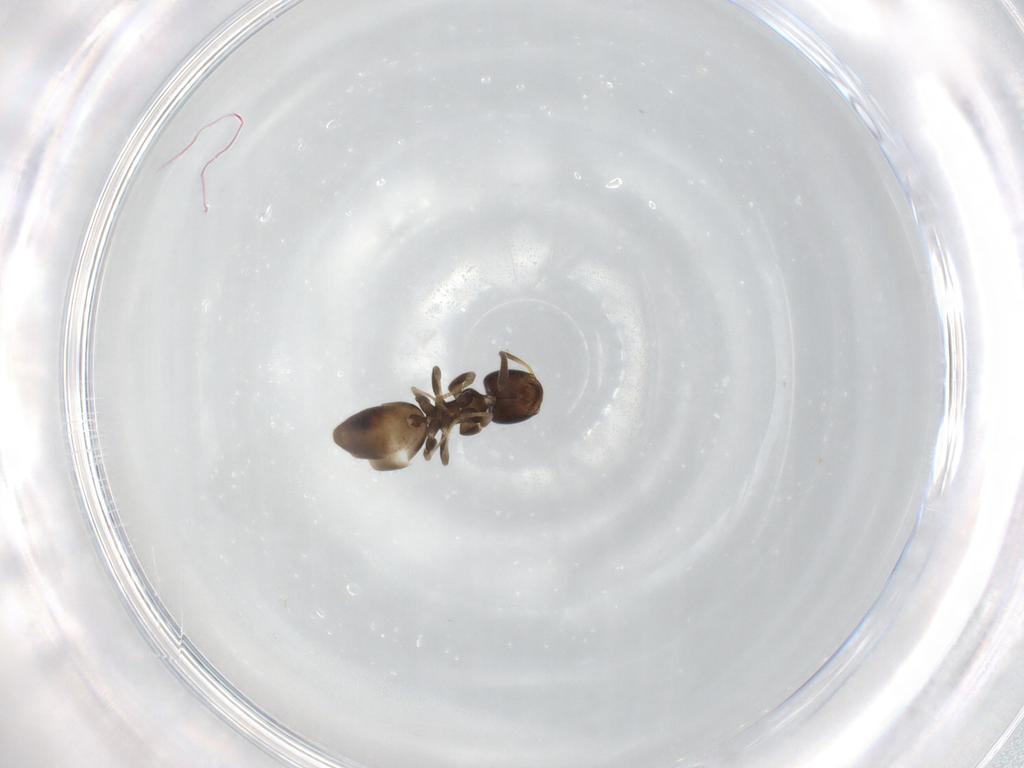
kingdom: Animalia
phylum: Arthropoda
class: Insecta
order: Hymenoptera
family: Formicidae
